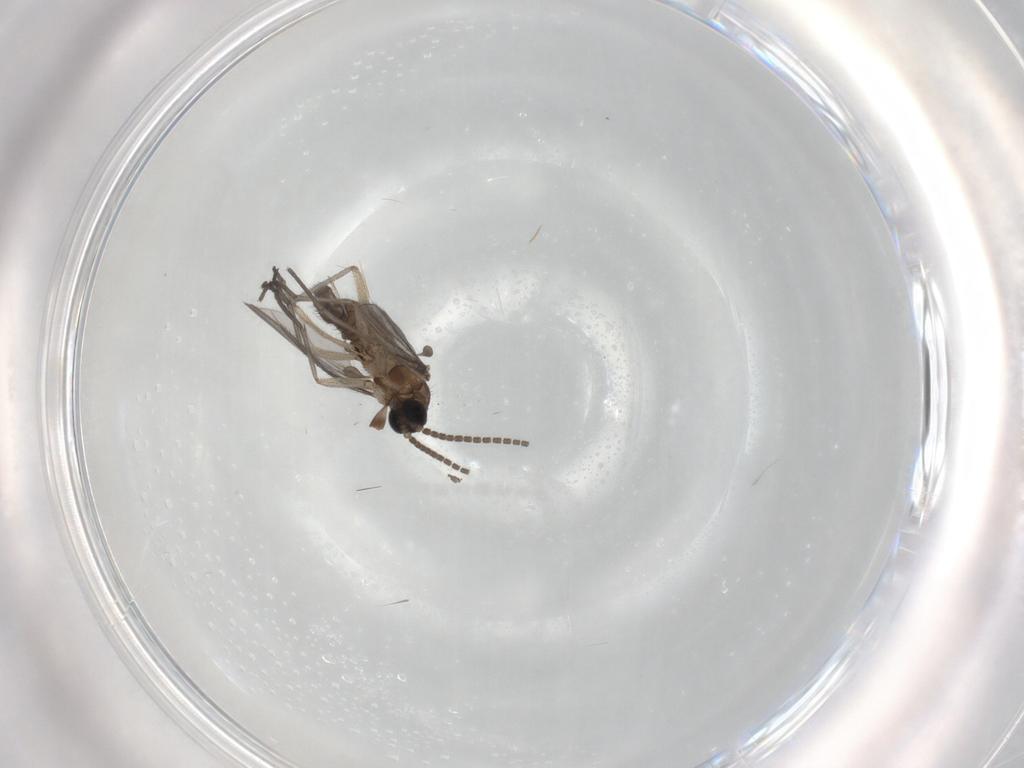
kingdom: Animalia
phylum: Arthropoda
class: Insecta
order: Diptera
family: Sciaridae
